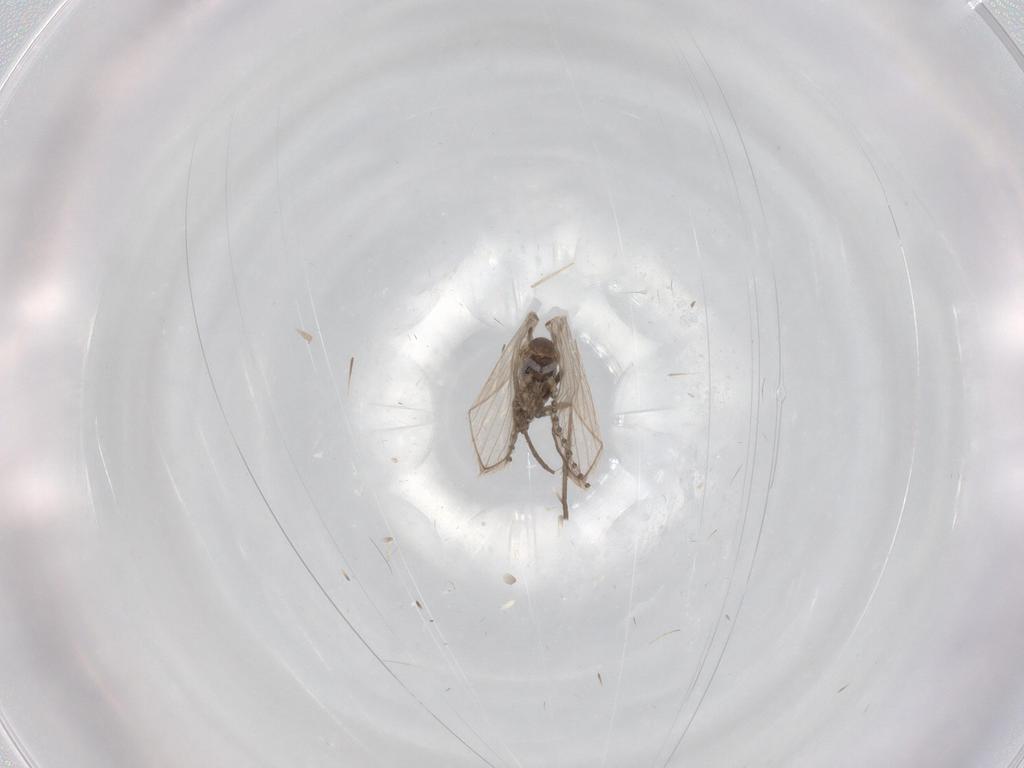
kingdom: Animalia
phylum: Arthropoda
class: Insecta
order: Diptera
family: Psychodidae
